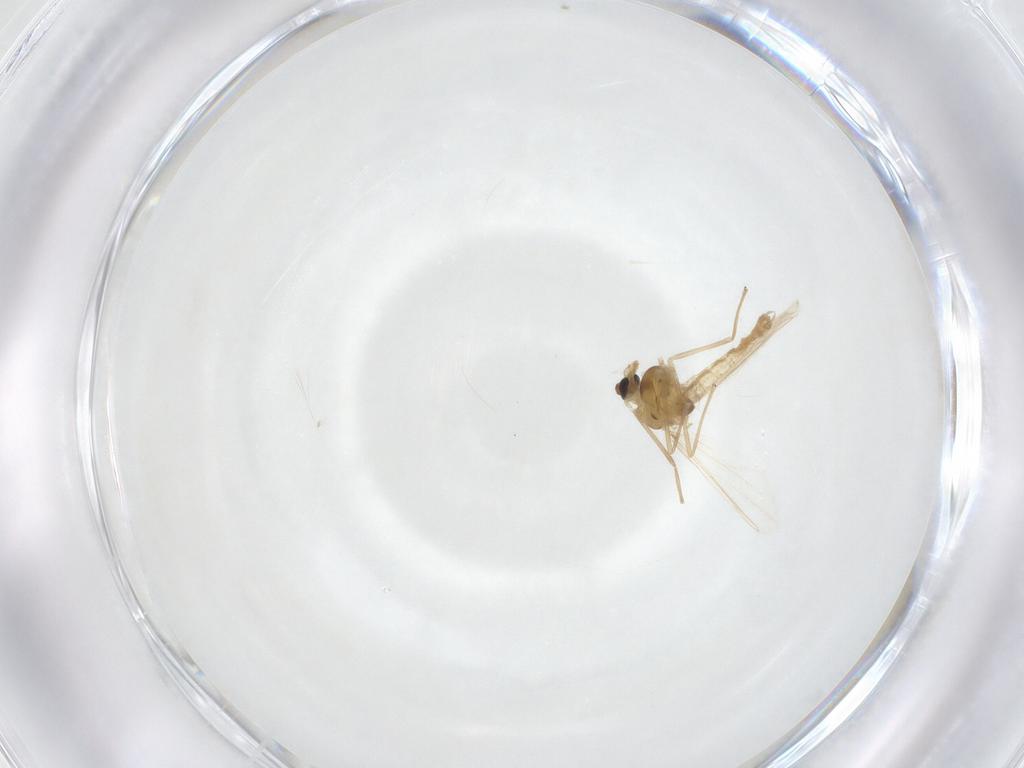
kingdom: Animalia
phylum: Arthropoda
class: Insecta
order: Diptera
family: Chironomidae
